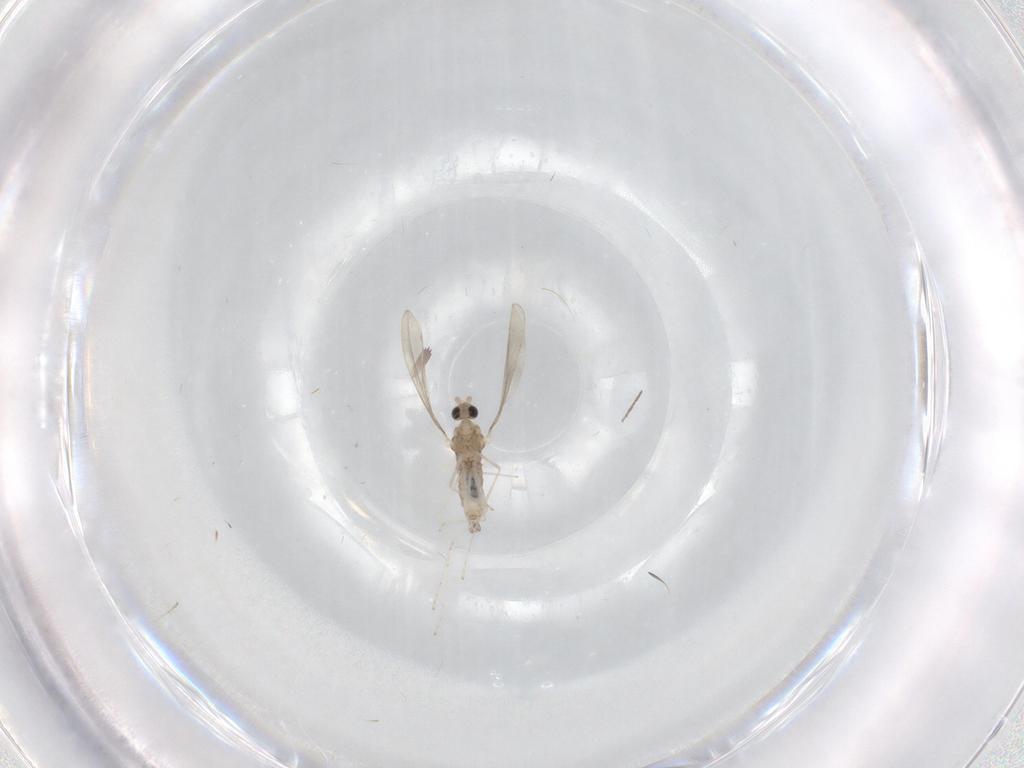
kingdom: Animalia
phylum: Arthropoda
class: Insecta
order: Diptera
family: Cecidomyiidae
